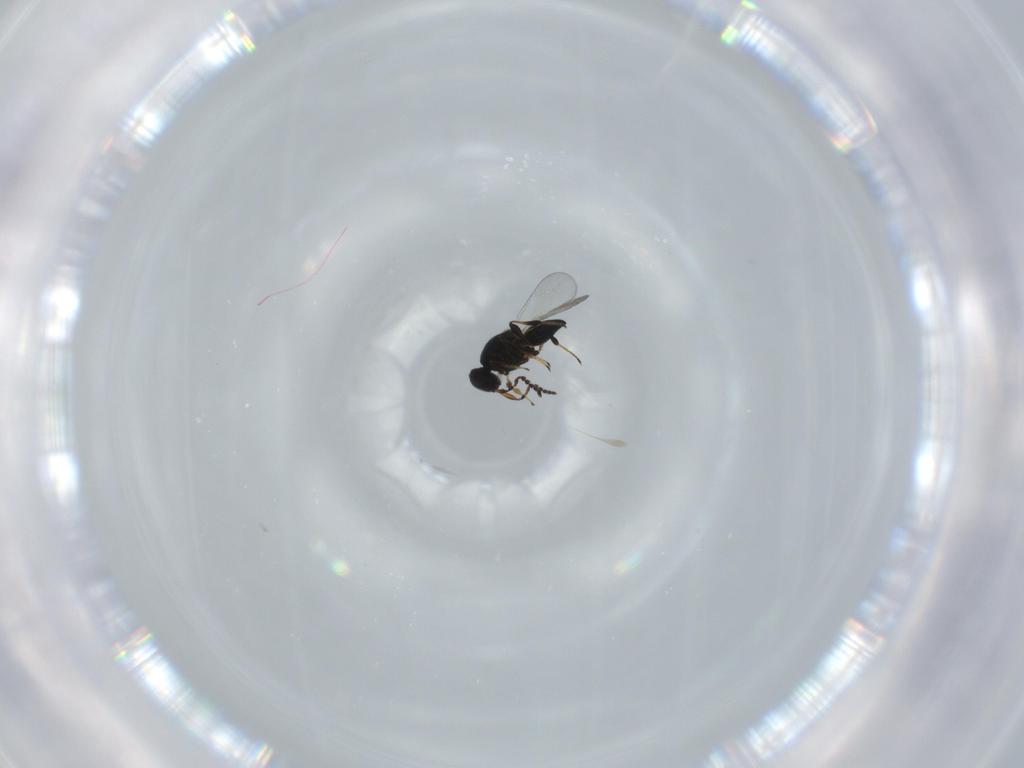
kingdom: Animalia
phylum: Arthropoda
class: Insecta
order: Hymenoptera
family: Platygastridae
